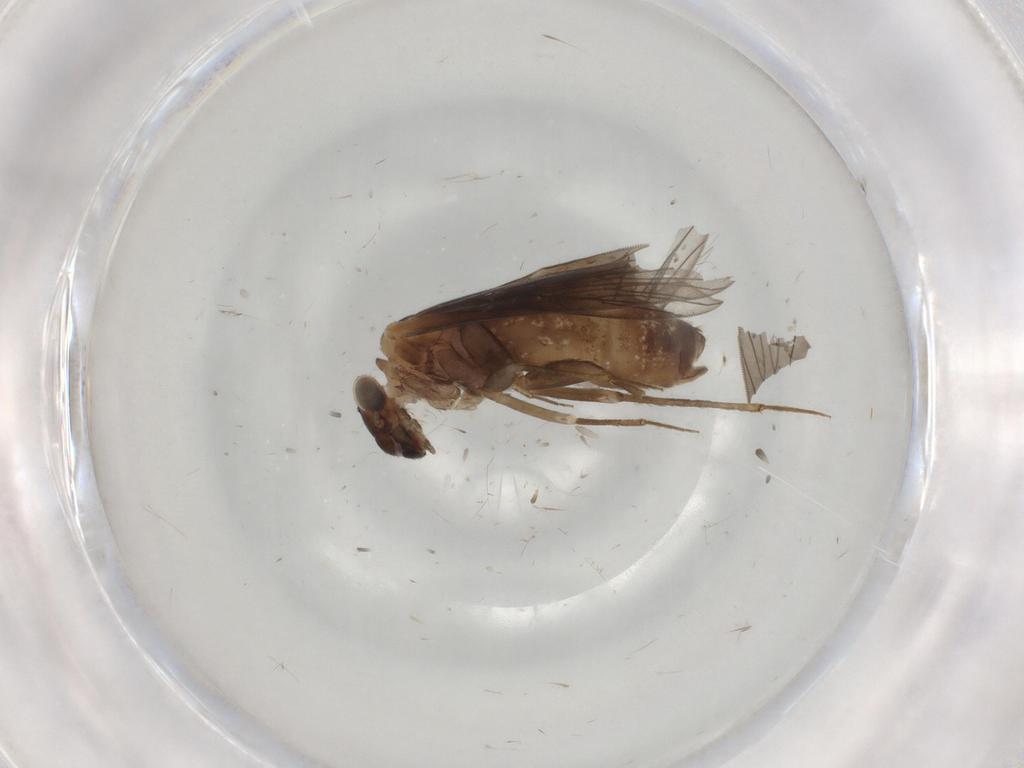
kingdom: Animalia
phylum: Arthropoda
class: Insecta
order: Psocodea
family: Lepidopsocidae
